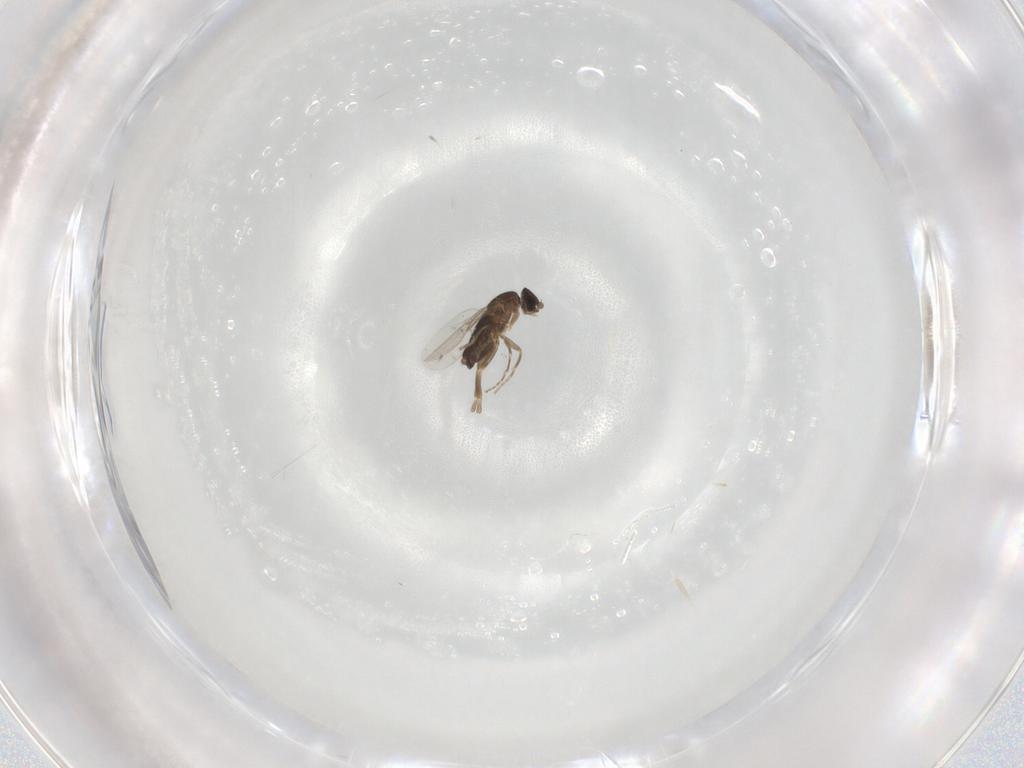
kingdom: Animalia
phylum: Arthropoda
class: Insecta
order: Diptera
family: Phoridae
